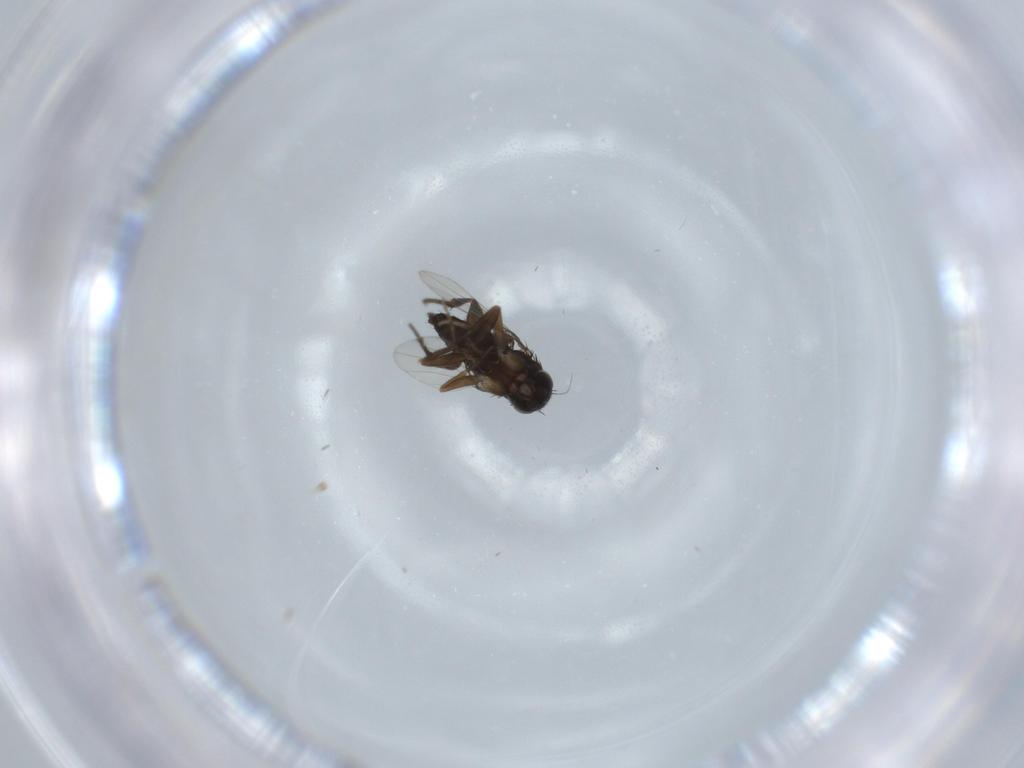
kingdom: Animalia
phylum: Arthropoda
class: Insecta
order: Diptera
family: Phoridae
